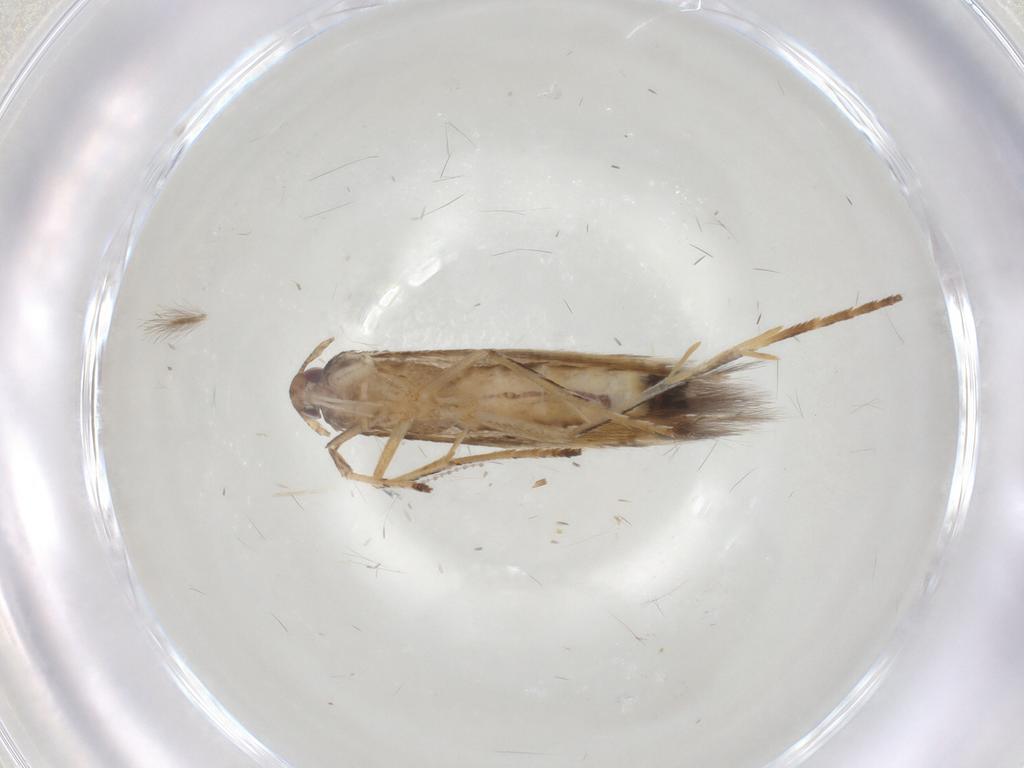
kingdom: Animalia
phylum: Arthropoda
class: Insecta
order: Lepidoptera
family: Cosmopterigidae
